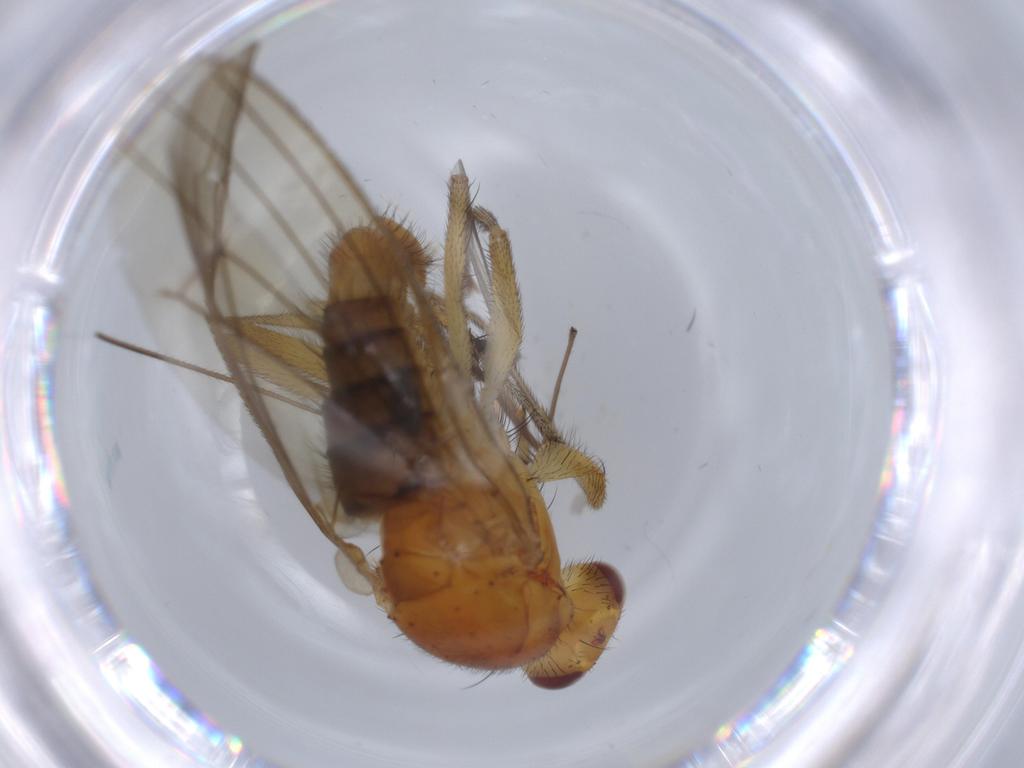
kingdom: Animalia
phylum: Arthropoda
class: Insecta
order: Diptera
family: Heleomyzidae
